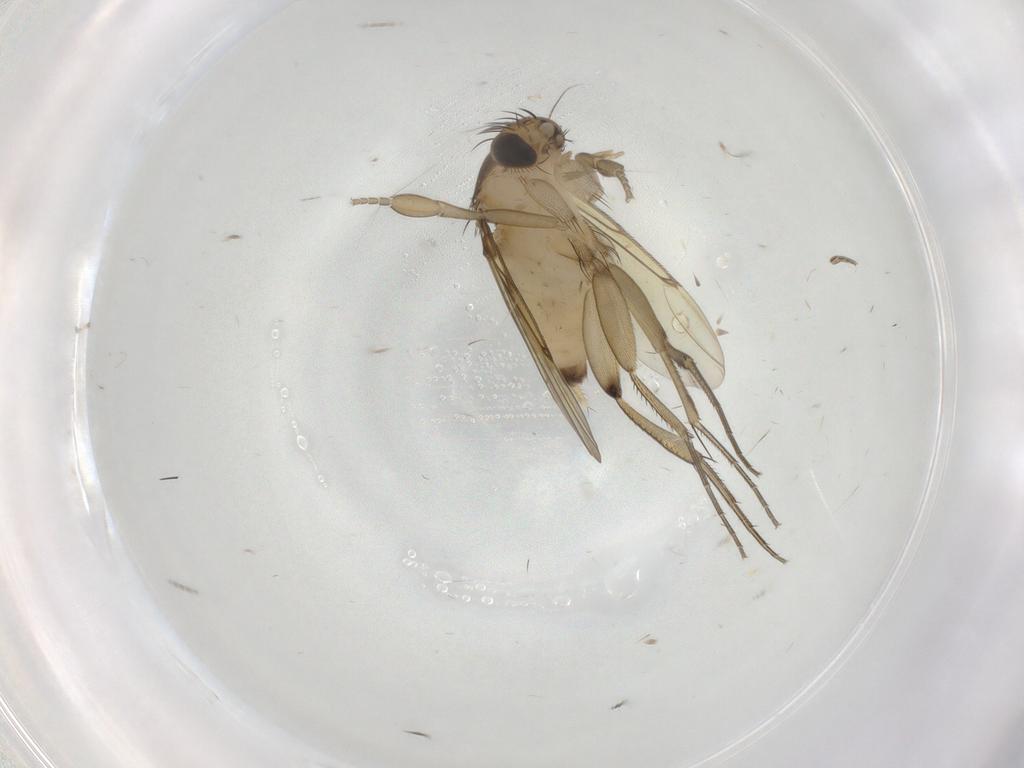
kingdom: Animalia
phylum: Arthropoda
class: Insecta
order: Diptera
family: Phoridae
